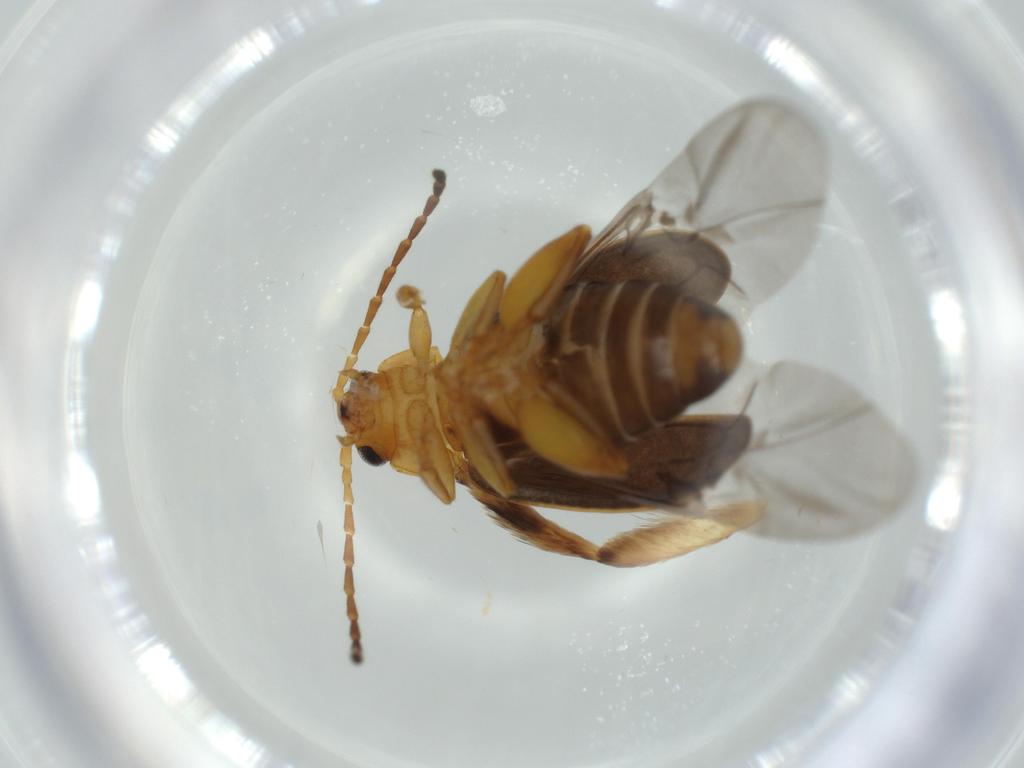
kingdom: Animalia
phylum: Arthropoda
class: Insecta
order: Coleoptera
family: Chrysomelidae
